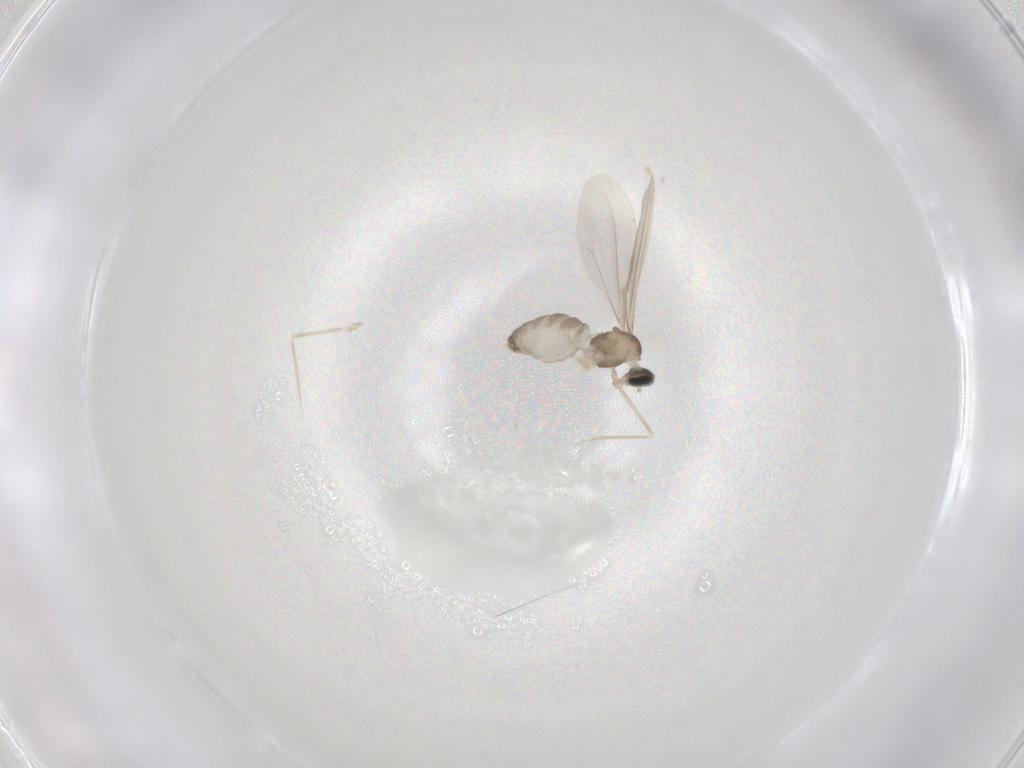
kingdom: Animalia
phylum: Arthropoda
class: Insecta
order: Diptera
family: Cecidomyiidae
